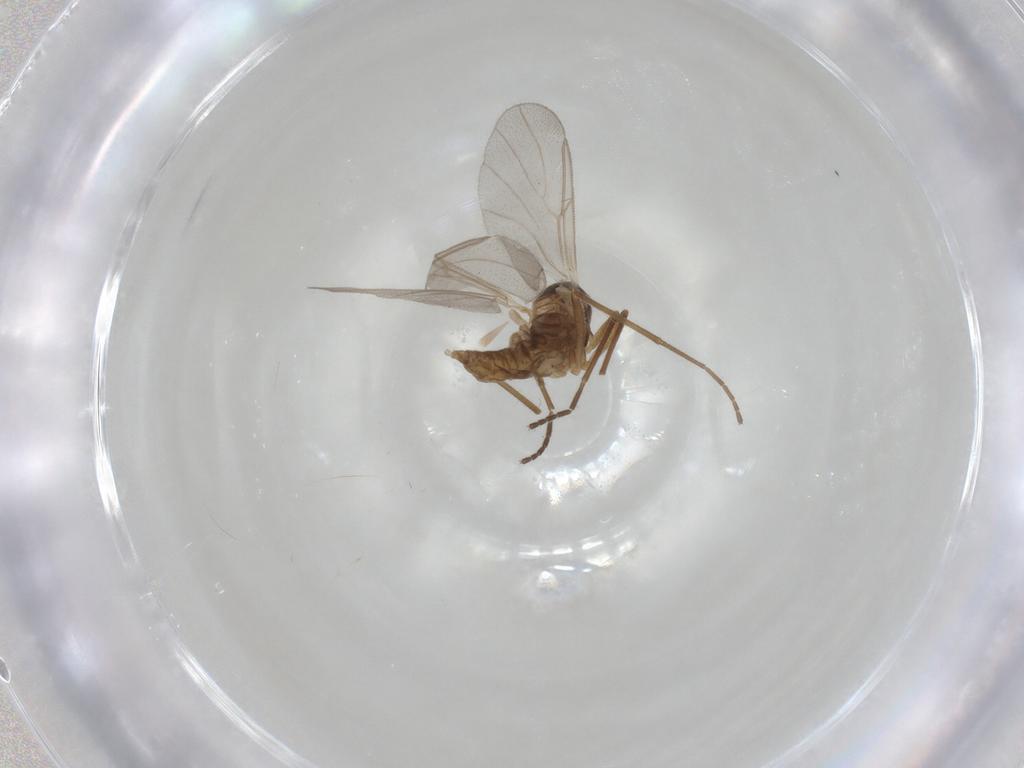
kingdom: Animalia
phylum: Arthropoda
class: Insecta
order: Diptera
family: Cecidomyiidae
